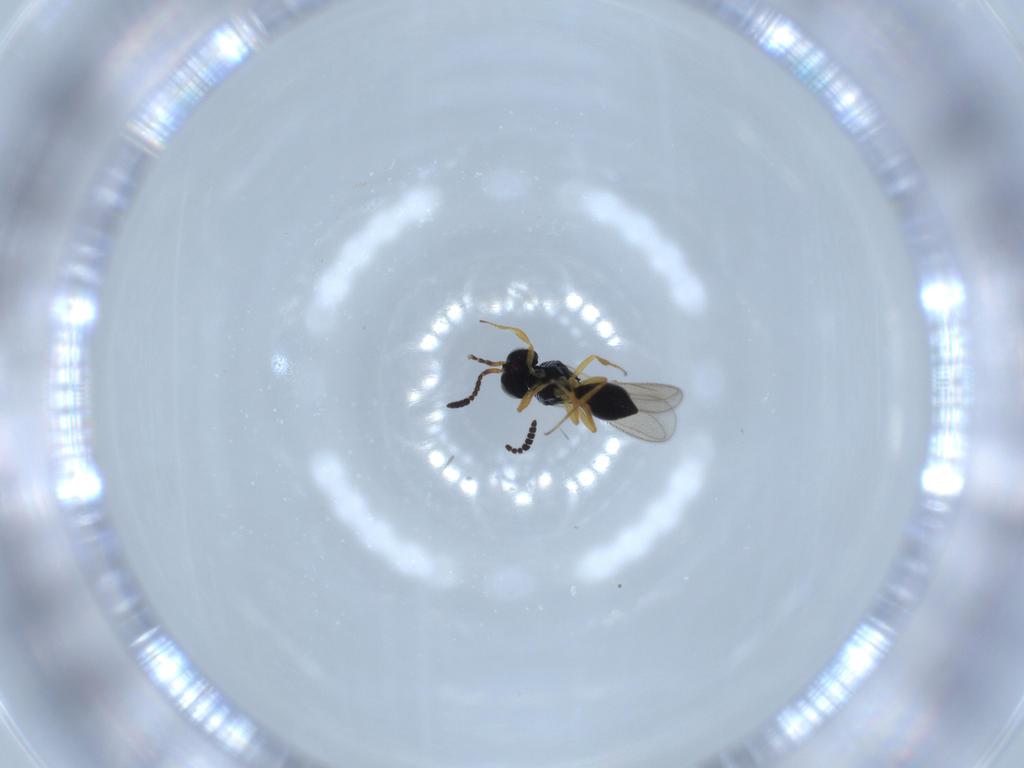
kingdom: Animalia
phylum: Arthropoda
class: Insecta
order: Hymenoptera
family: Scelionidae
